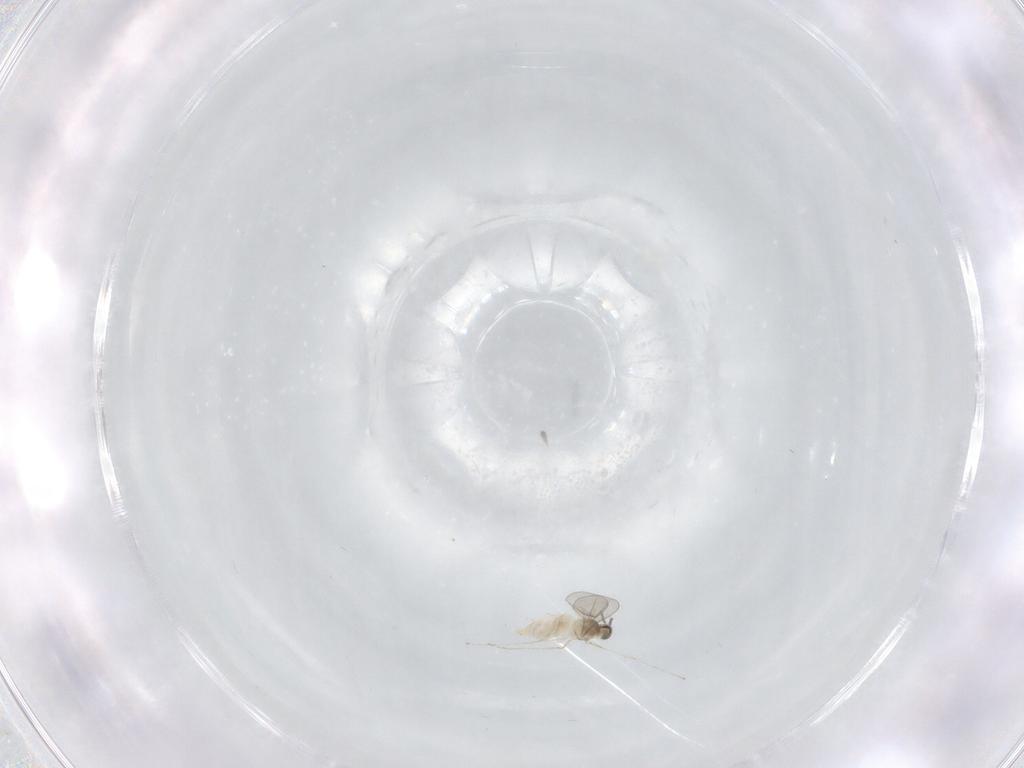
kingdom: Animalia
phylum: Arthropoda
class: Insecta
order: Diptera
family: Cecidomyiidae
